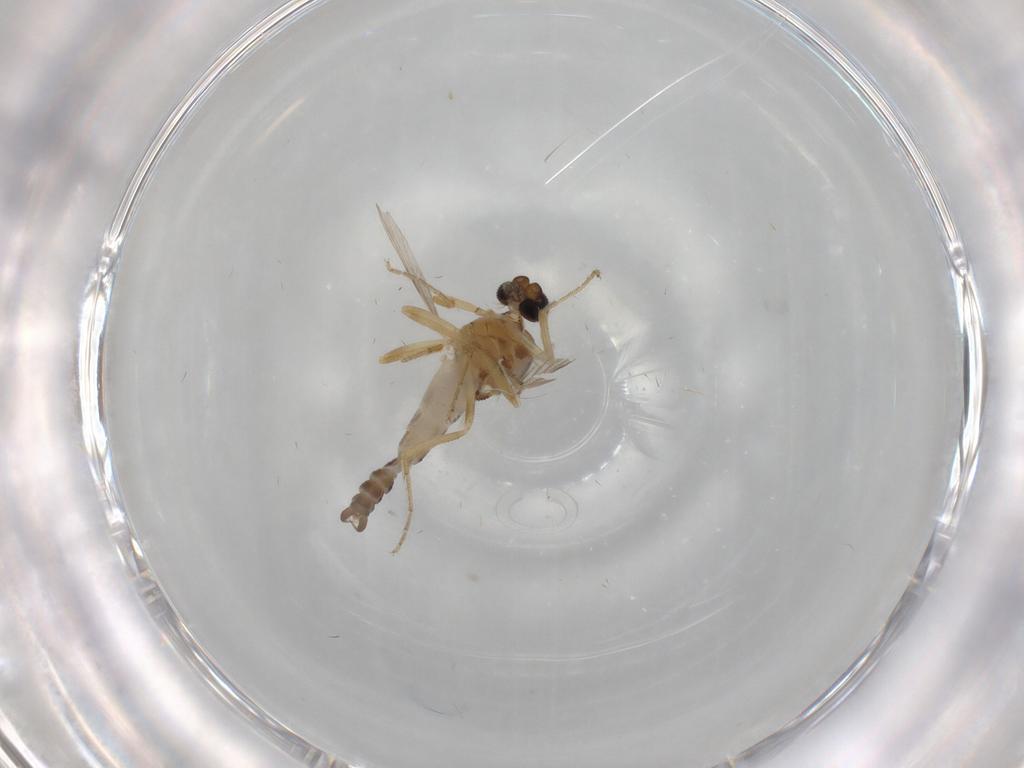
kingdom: Animalia
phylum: Arthropoda
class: Insecta
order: Diptera
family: Ceratopogonidae
